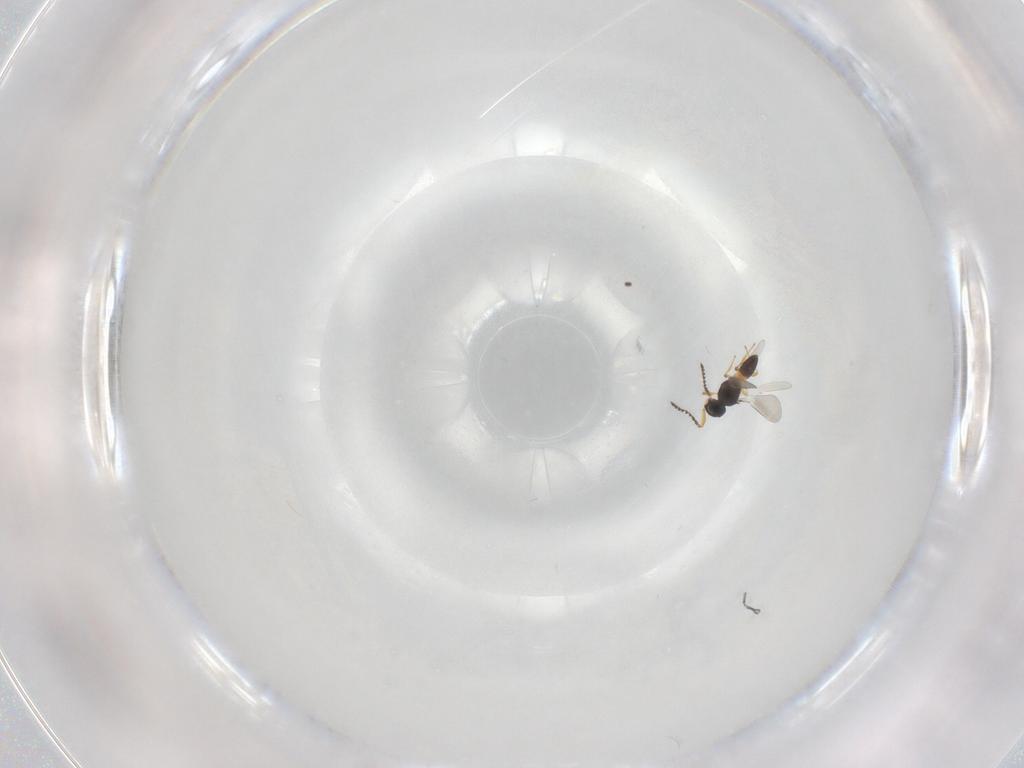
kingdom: Animalia
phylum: Arthropoda
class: Insecta
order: Hymenoptera
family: Platygastridae
